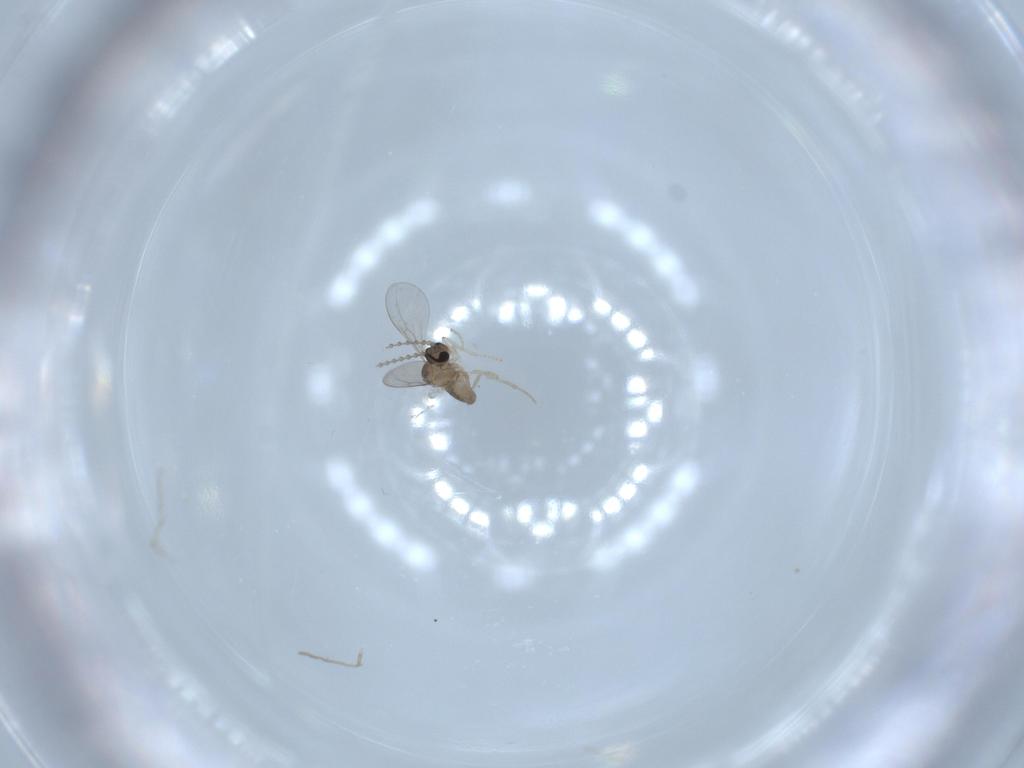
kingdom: Animalia
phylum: Arthropoda
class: Insecta
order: Diptera
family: Cecidomyiidae
